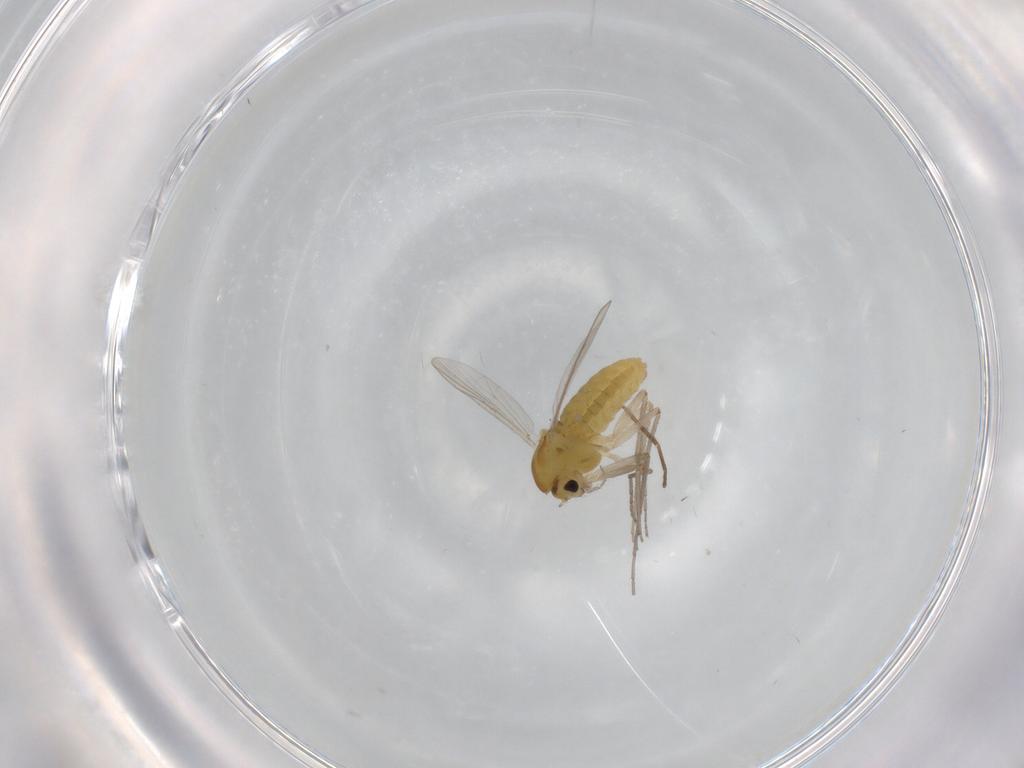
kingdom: Animalia
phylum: Arthropoda
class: Insecta
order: Diptera
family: Chironomidae
